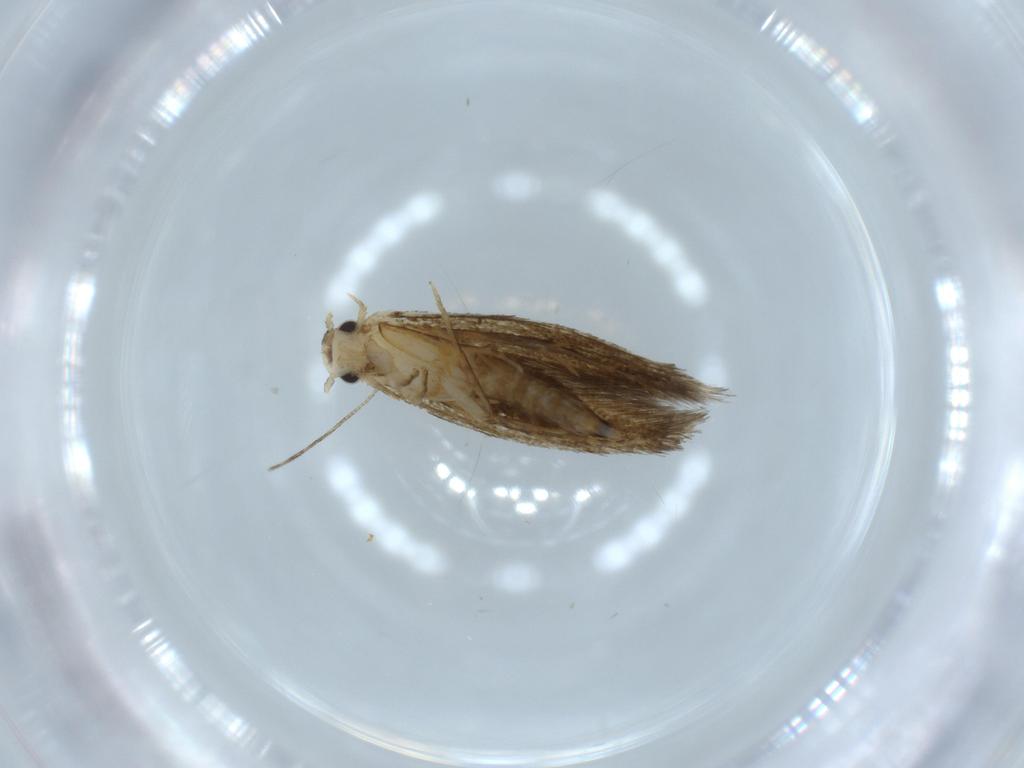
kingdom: Animalia
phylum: Arthropoda
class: Insecta
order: Lepidoptera
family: Tineidae
